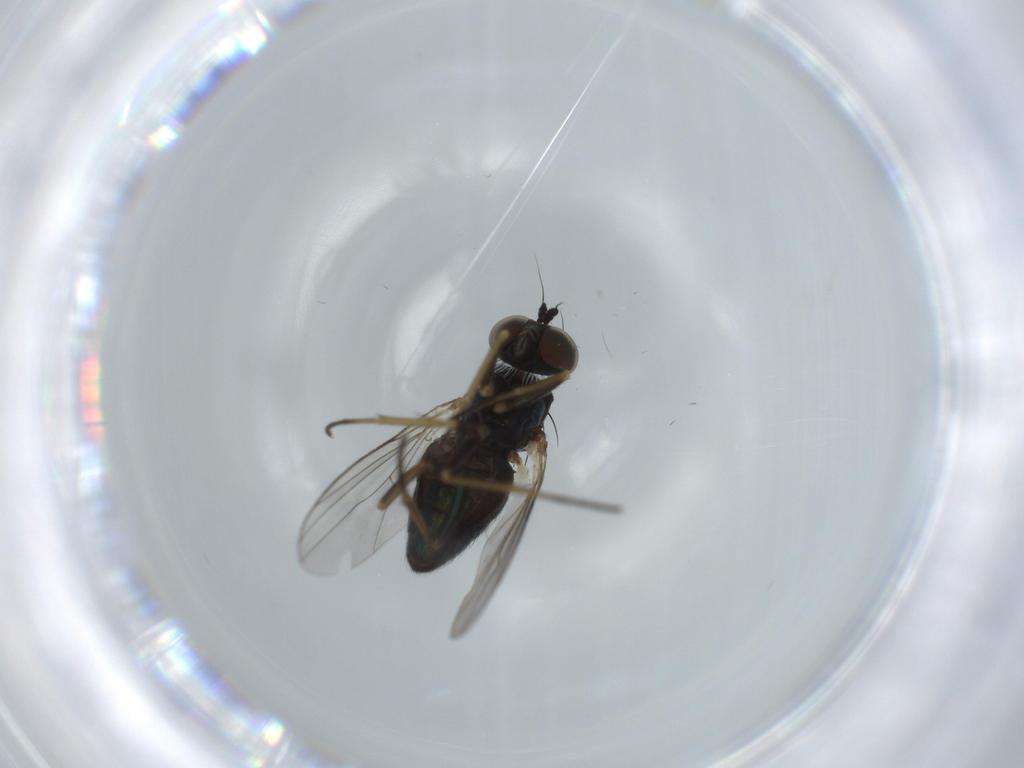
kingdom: Animalia
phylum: Arthropoda
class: Insecta
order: Diptera
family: Dolichopodidae
